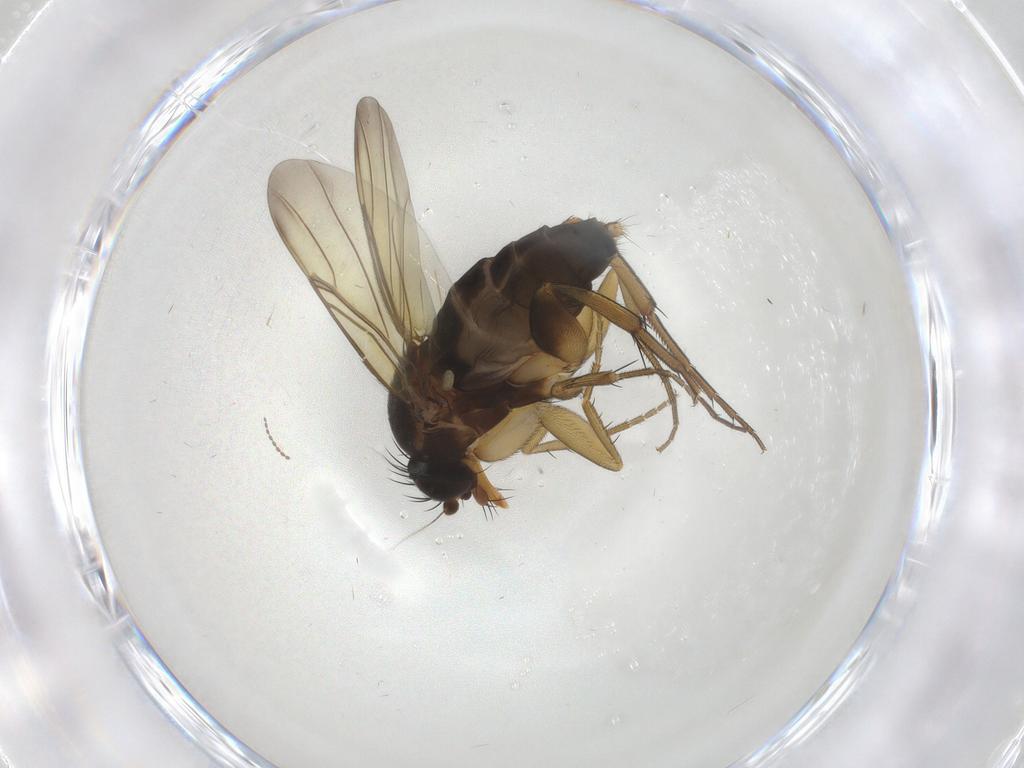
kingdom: Animalia
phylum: Arthropoda
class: Insecta
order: Diptera
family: Phoridae
